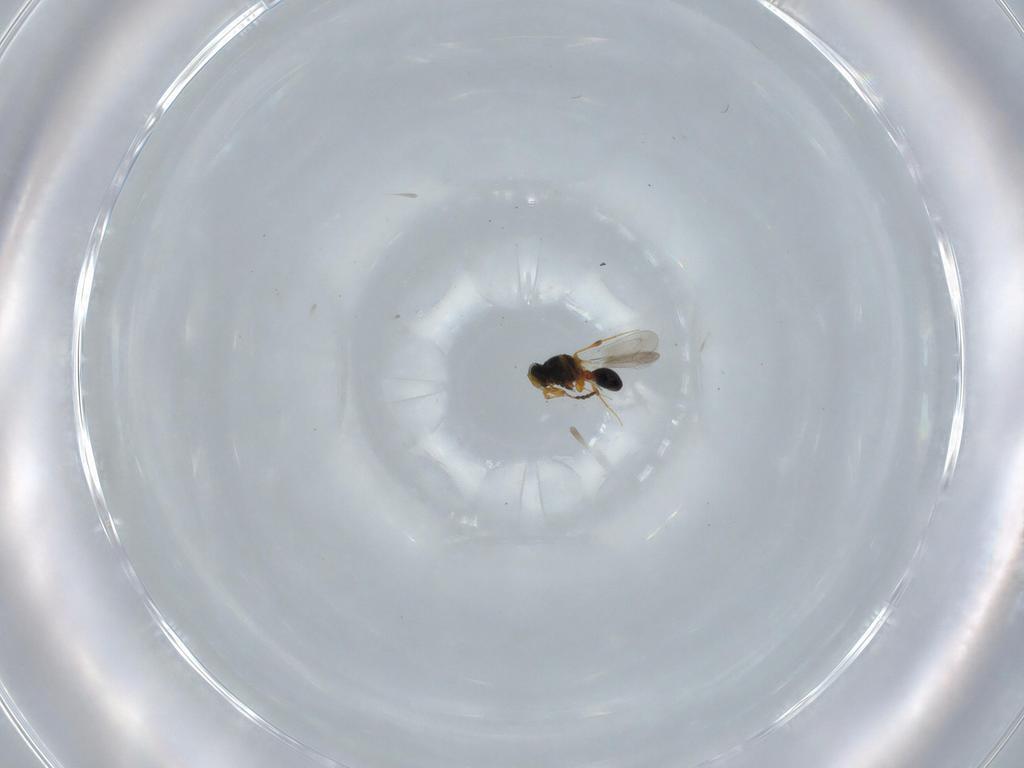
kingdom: Animalia
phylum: Arthropoda
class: Insecta
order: Hymenoptera
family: Platygastridae
